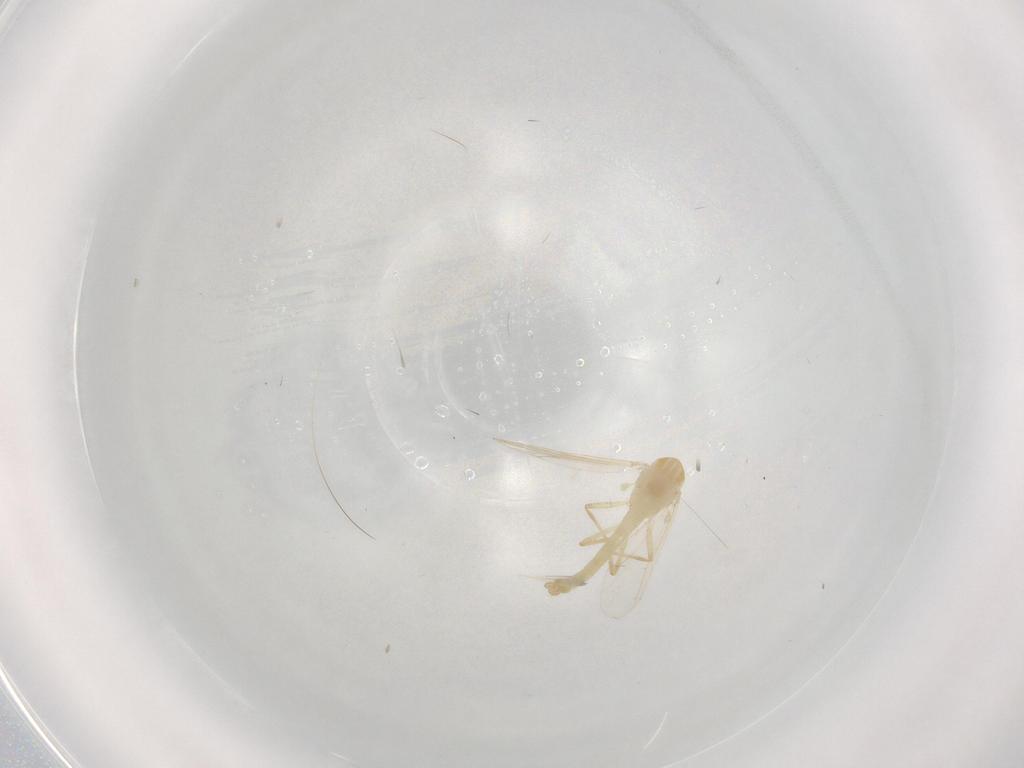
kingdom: Animalia
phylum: Arthropoda
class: Insecta
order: Diptera
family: Chironomidae
